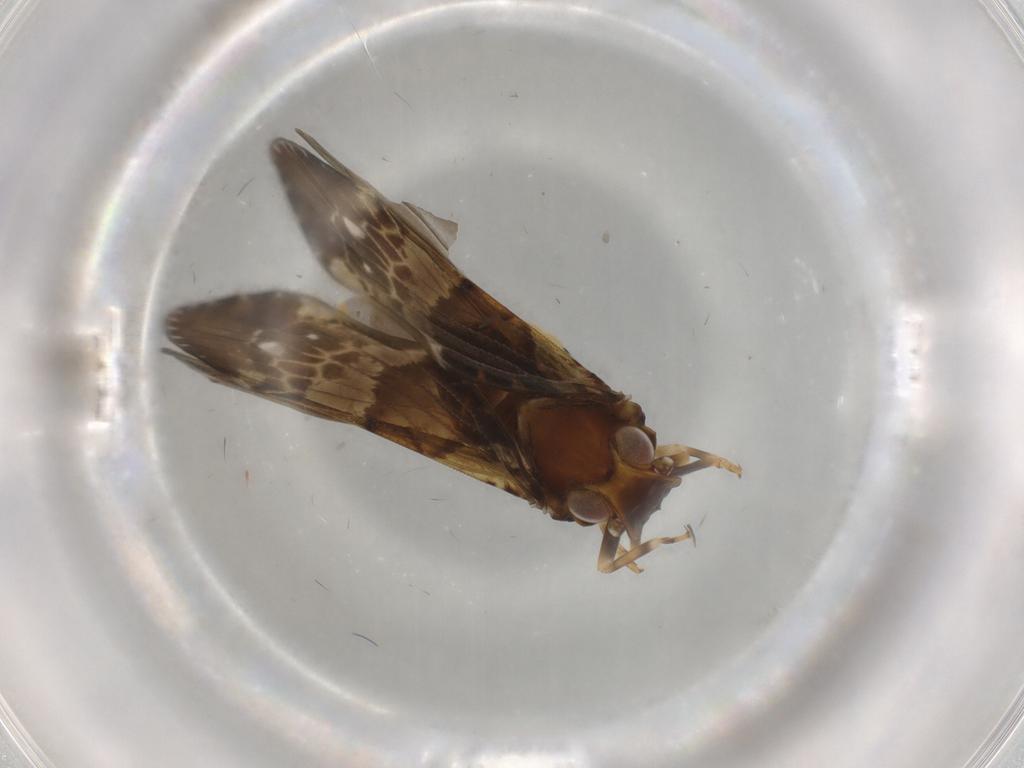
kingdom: Animalia
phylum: Arthropoda
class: Insecta
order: Hemiptera
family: Cixiidae
